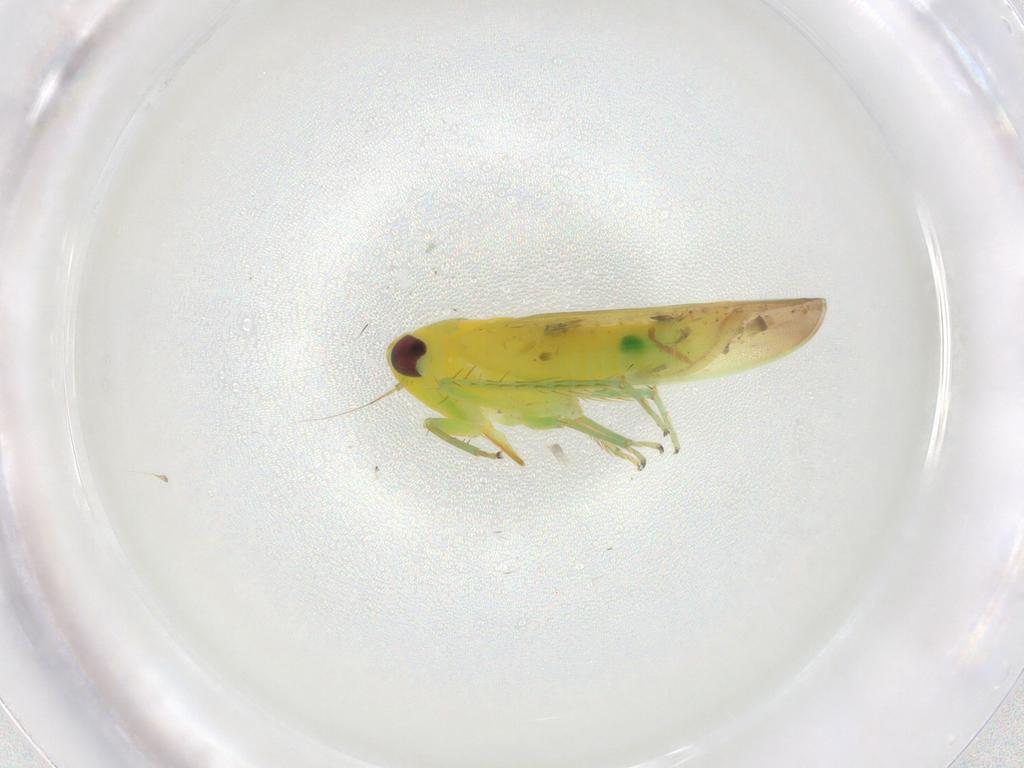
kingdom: Animalia
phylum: Arthropoda
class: Insecta
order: Hemiptera
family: Cicadellidae
